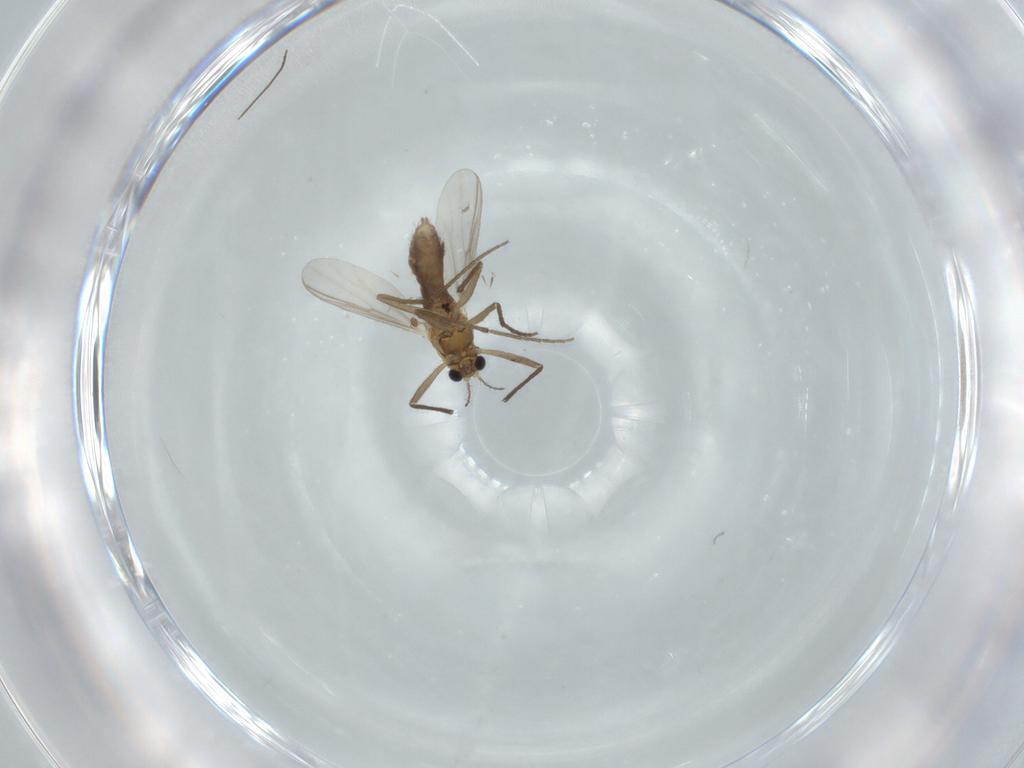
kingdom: Animalia
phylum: Arthropoda
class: Insecta
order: Diptera
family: Chironomidae
